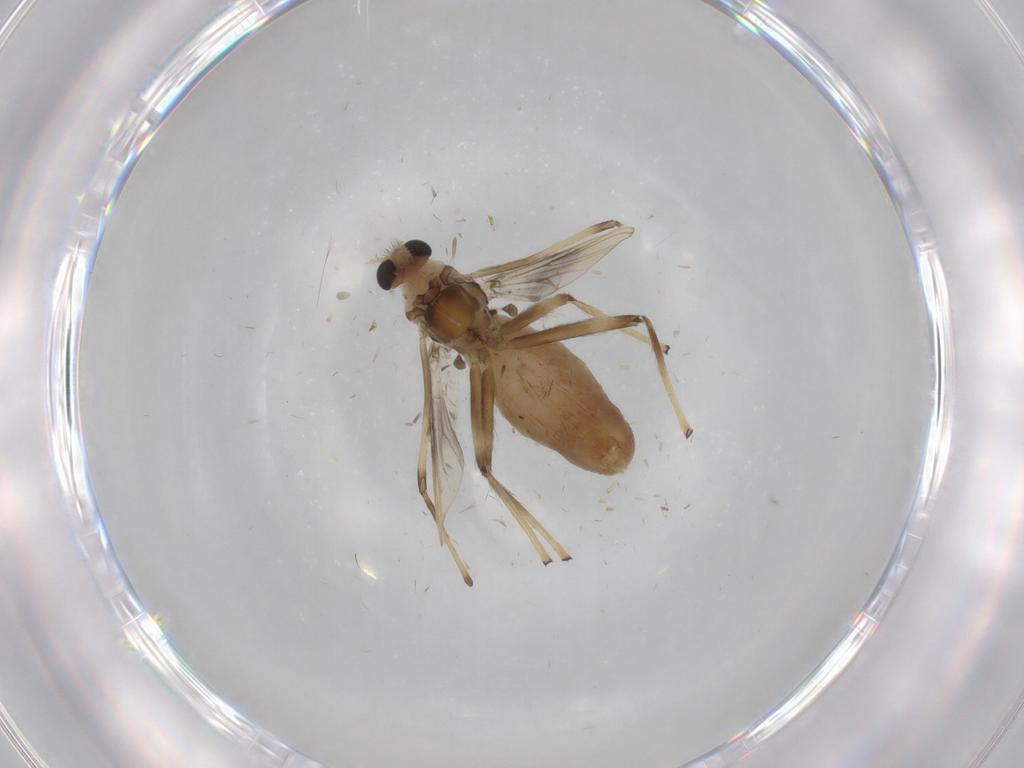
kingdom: Animalia
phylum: Arthropoda
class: Insecta
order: Diptera
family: Chironomidae
